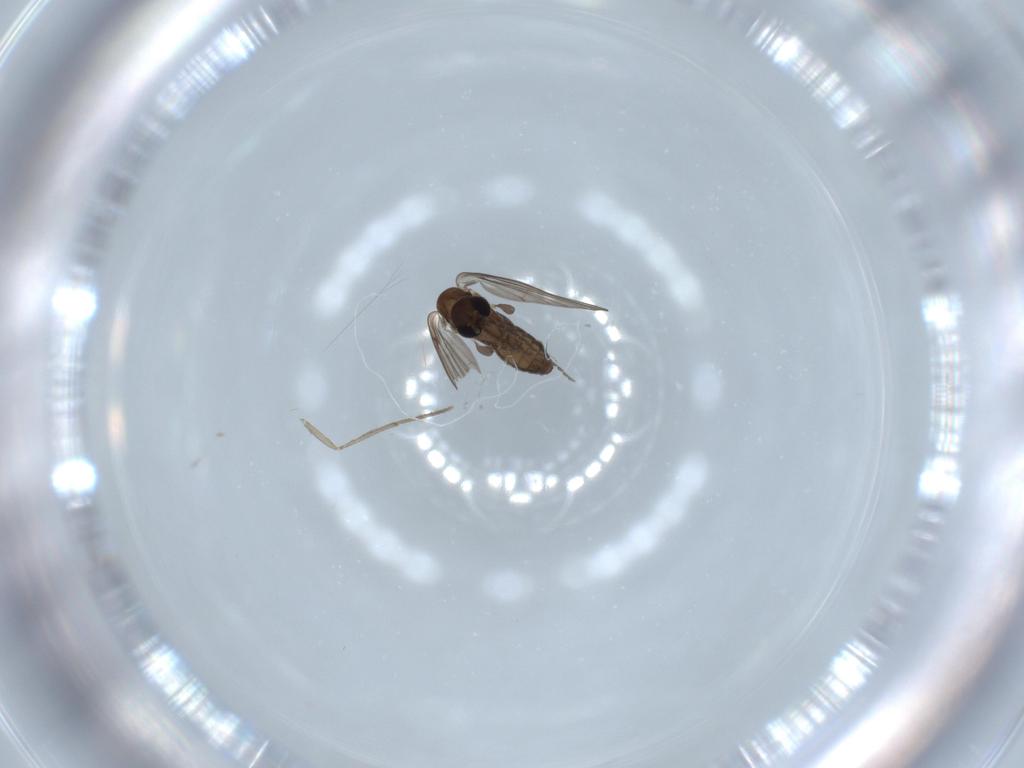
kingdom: Animalia
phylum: Arthropoda
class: Insecta
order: Diptera
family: Psychodidae
